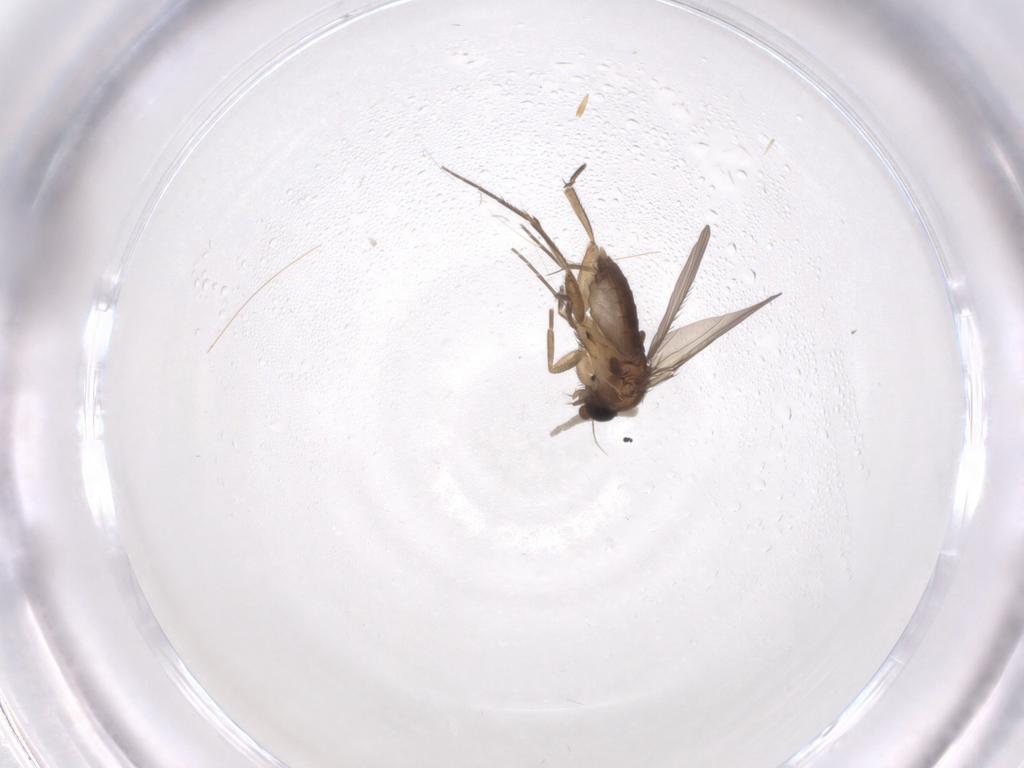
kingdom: Animalia
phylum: Arthropoda
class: Insecta
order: Diptera
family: Phoridae
